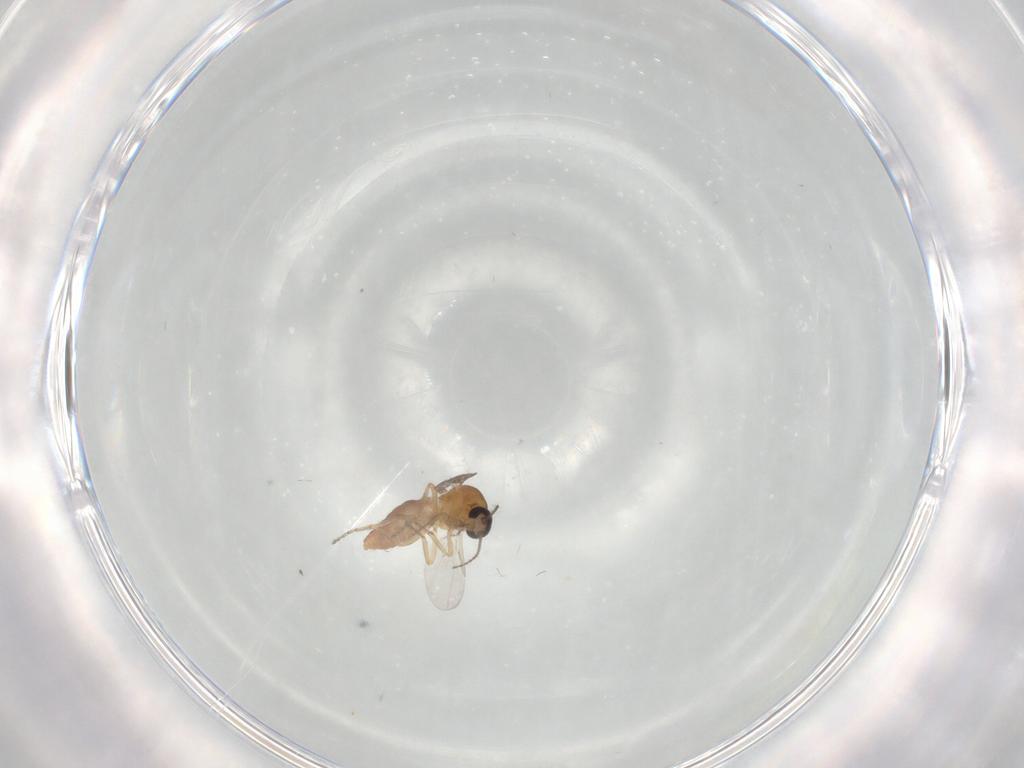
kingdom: Animalia
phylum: Arthropoda
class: Insecta
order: Diptera
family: Ceratopogonidae
